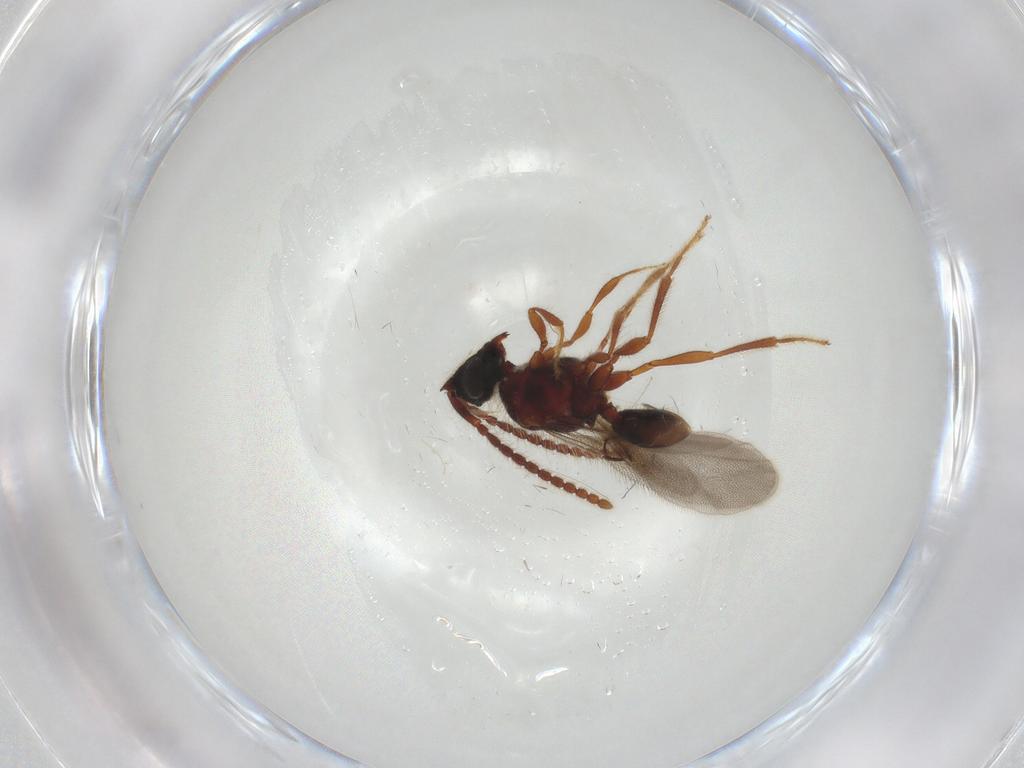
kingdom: Animalia
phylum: Arthropoda
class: Insecta
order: Hymenoptera
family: Diapriidae
